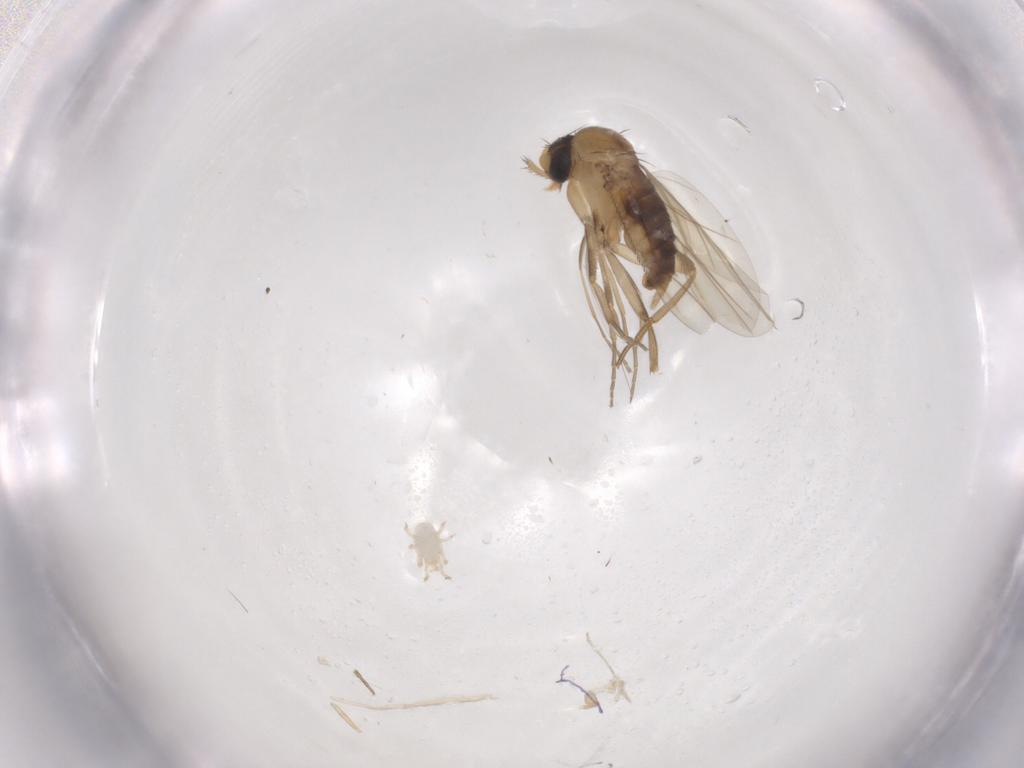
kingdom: Animalia
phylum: Arthropoda
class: Insecta
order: Diptera
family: Phoridae
